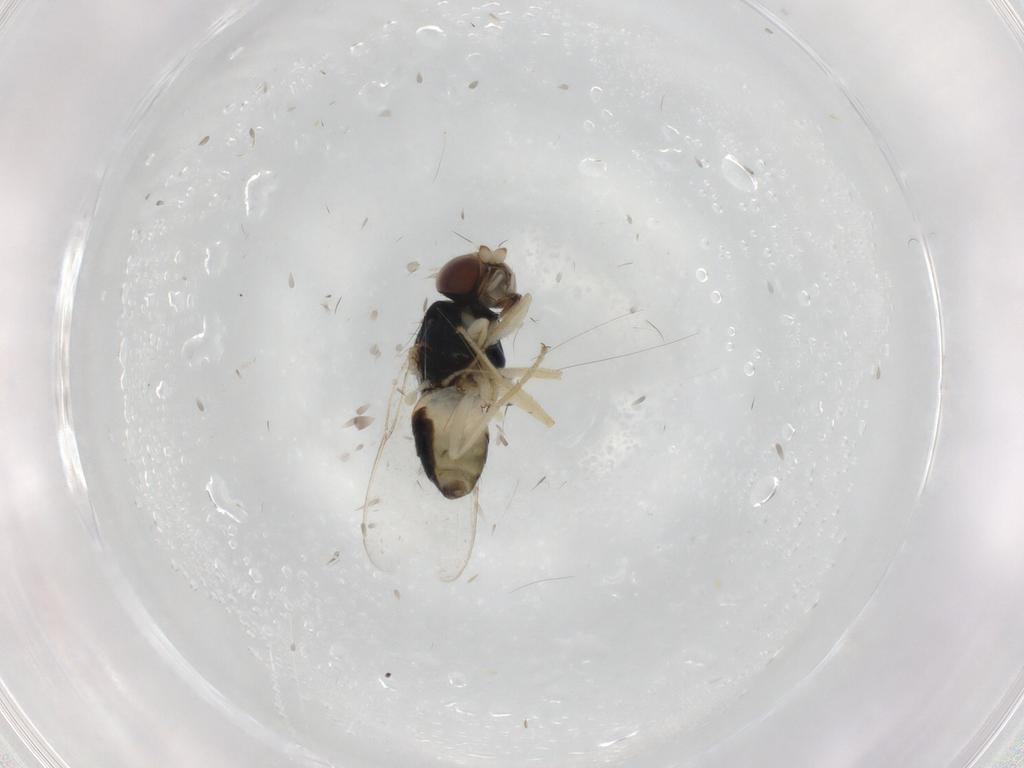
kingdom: Animalia
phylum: Arthropoda
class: Insecta
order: Diptera
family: Chloropidae
